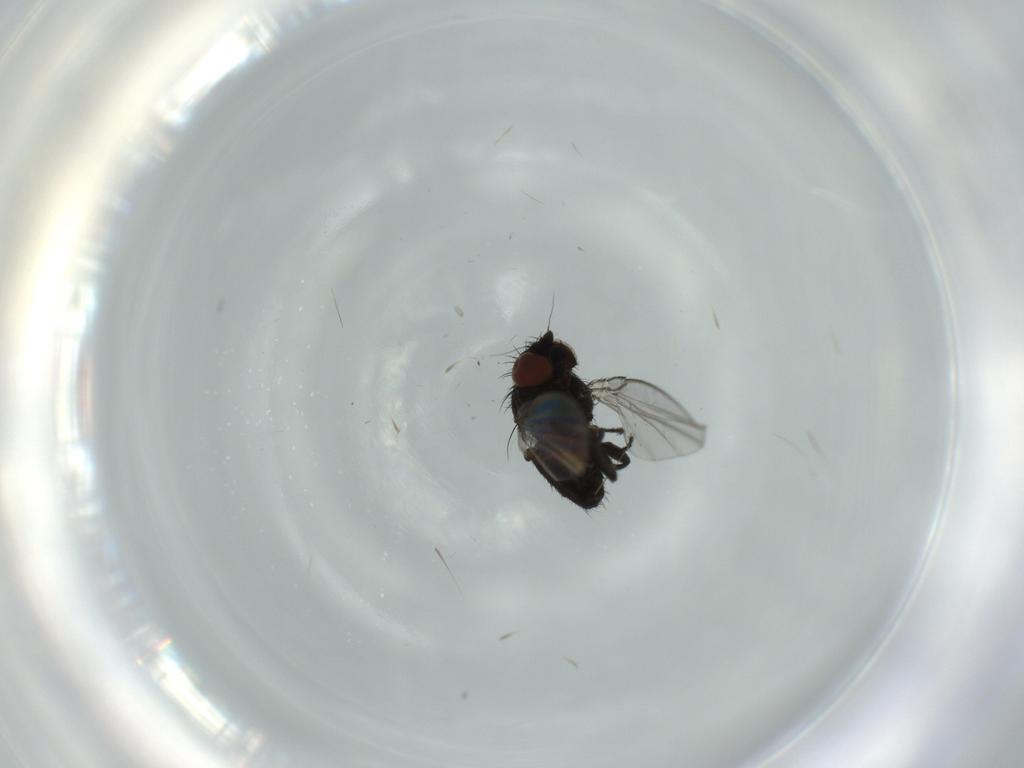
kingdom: Animalia
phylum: Arthropoda
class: Insecta
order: Diptera
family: Milichiidae
